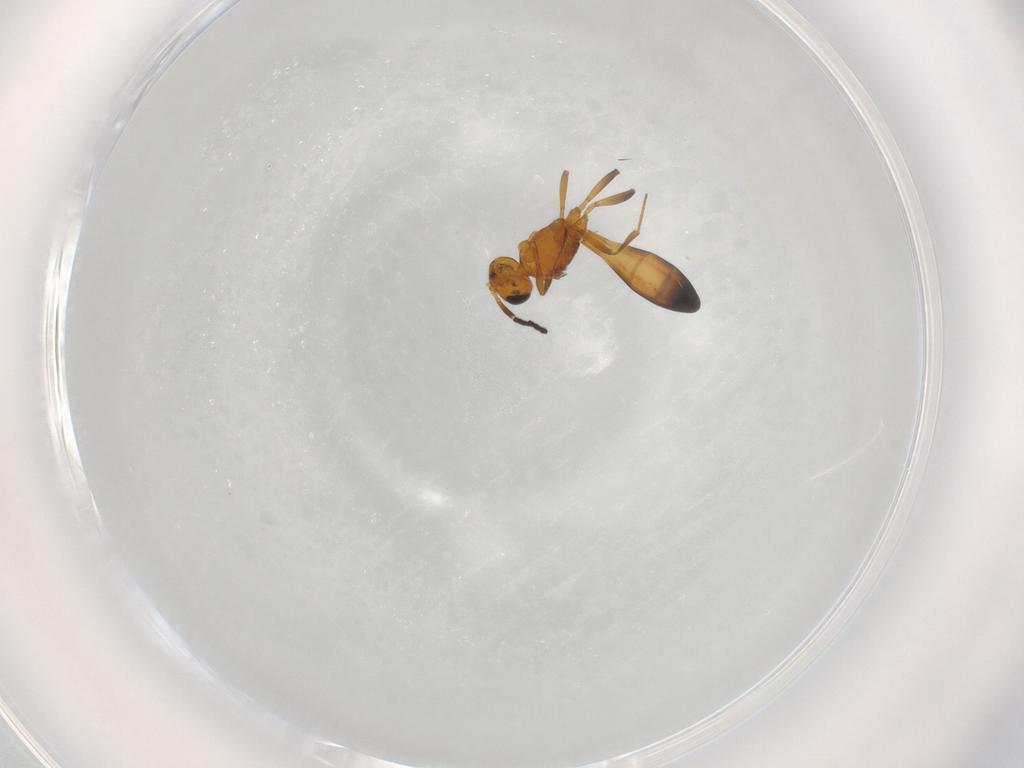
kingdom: Animalia
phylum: Arthropoda
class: Insecta
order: Hymenoptera
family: Scelionidae
